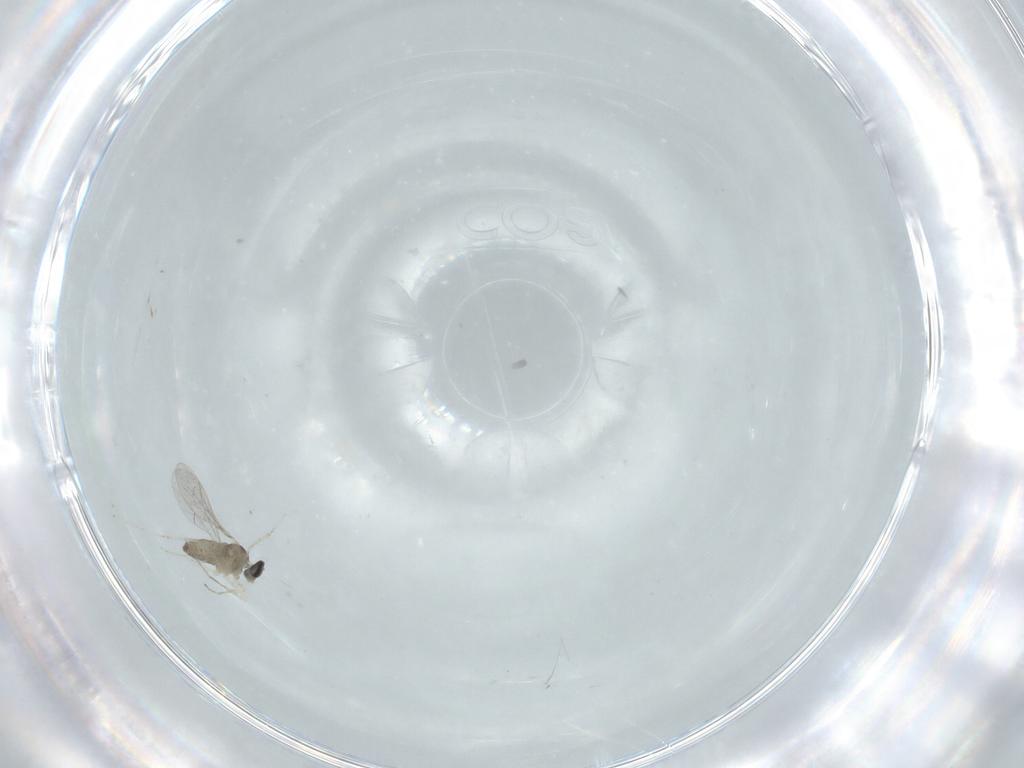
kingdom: Animalia
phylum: Arthropoda
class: Insecta
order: Diptera
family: Cecidomyiidae
